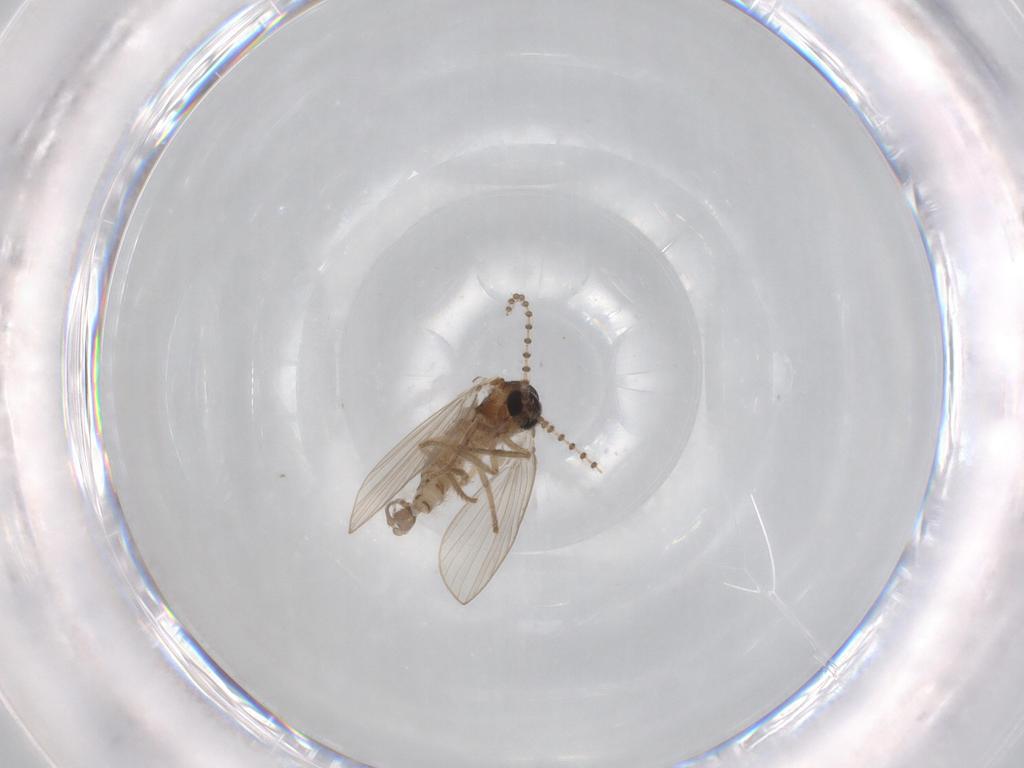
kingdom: Animalia
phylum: Arthropoda
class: Insecta
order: Diptera
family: Psychodidae
